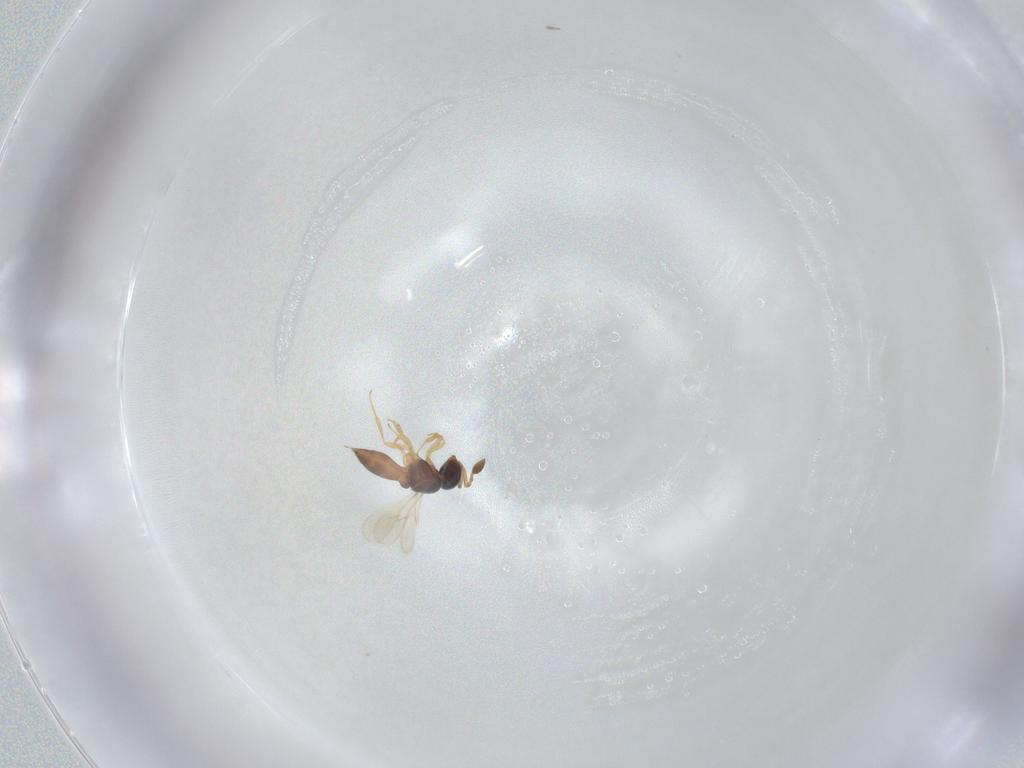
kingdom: Animalia
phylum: Arthropoda
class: Insecta
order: Hymenoptera
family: Scelionidae
